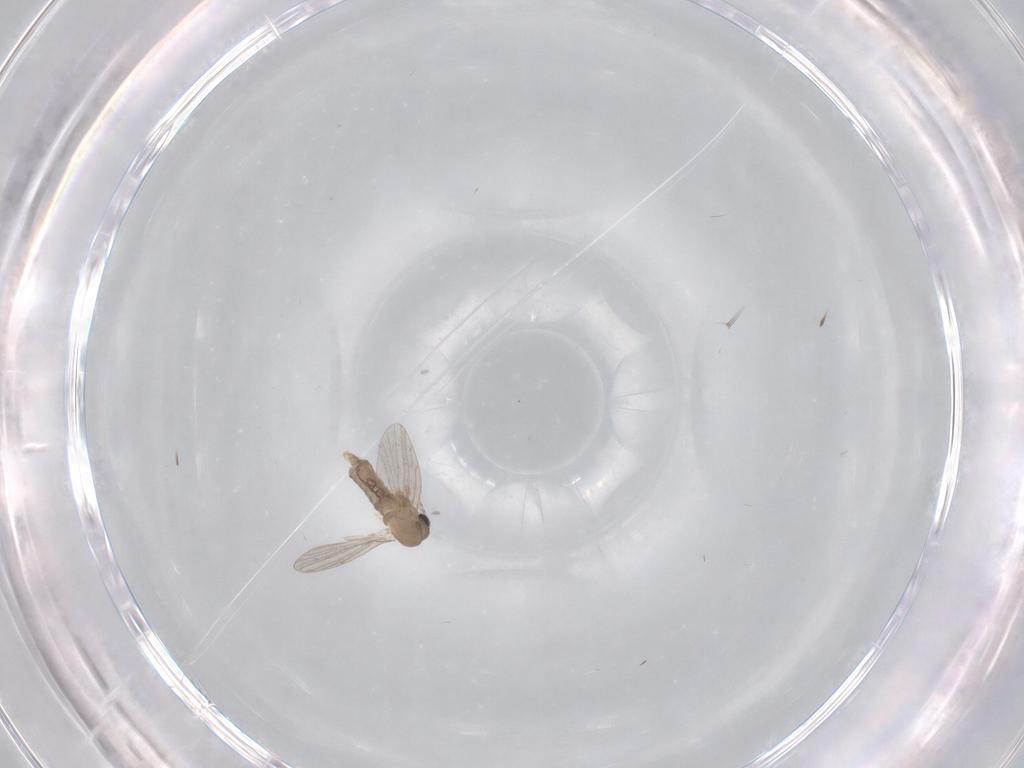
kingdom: Animalia
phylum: Arthropoda
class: Insecta
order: Diptera
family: Psychodidae
